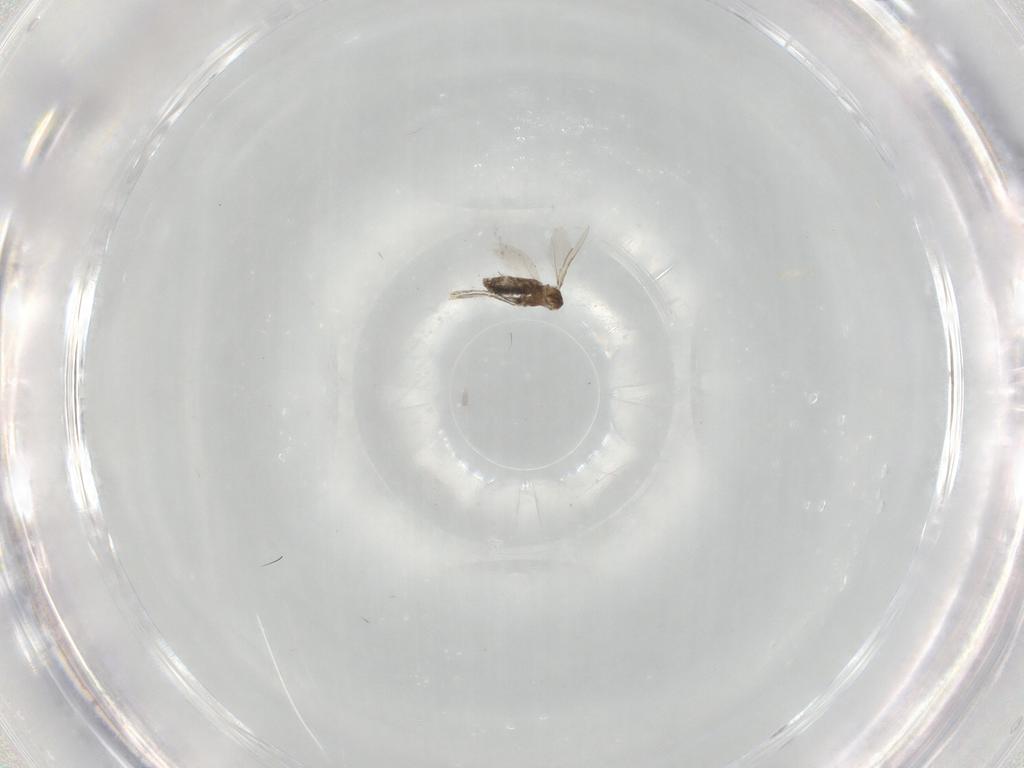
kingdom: Animalia
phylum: Arthropoda
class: Insecta
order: Diptera
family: Cecidomyiidae
